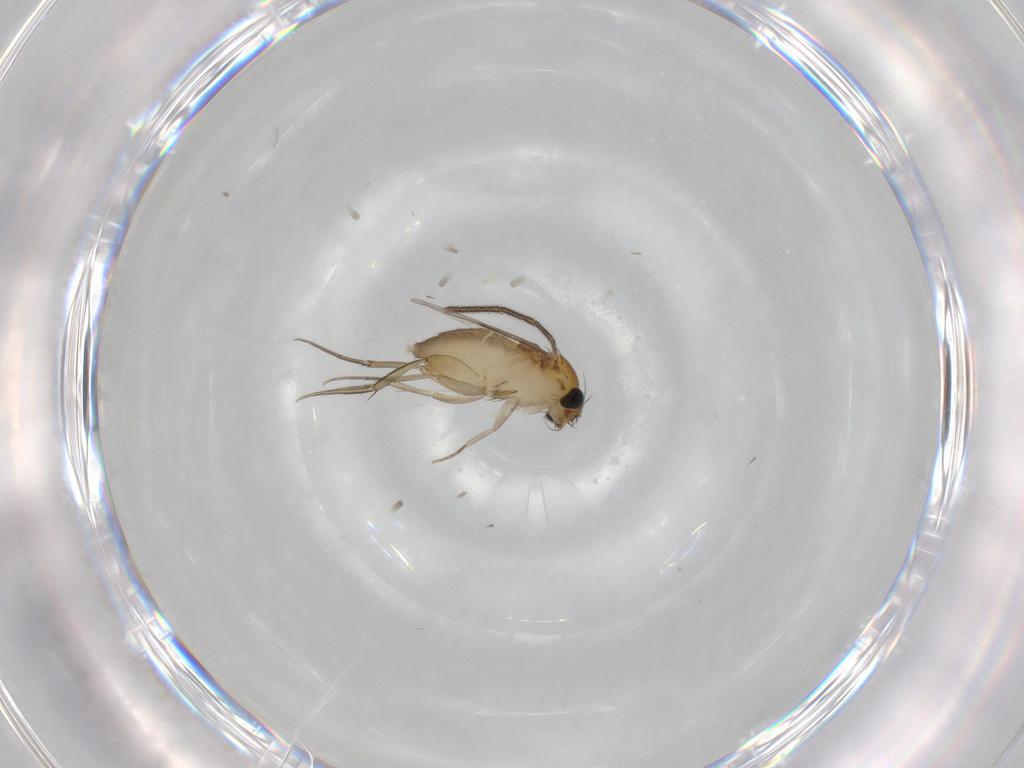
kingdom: Animalia
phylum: Arthropoda
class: Insecta
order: Diptera
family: Phoridae
